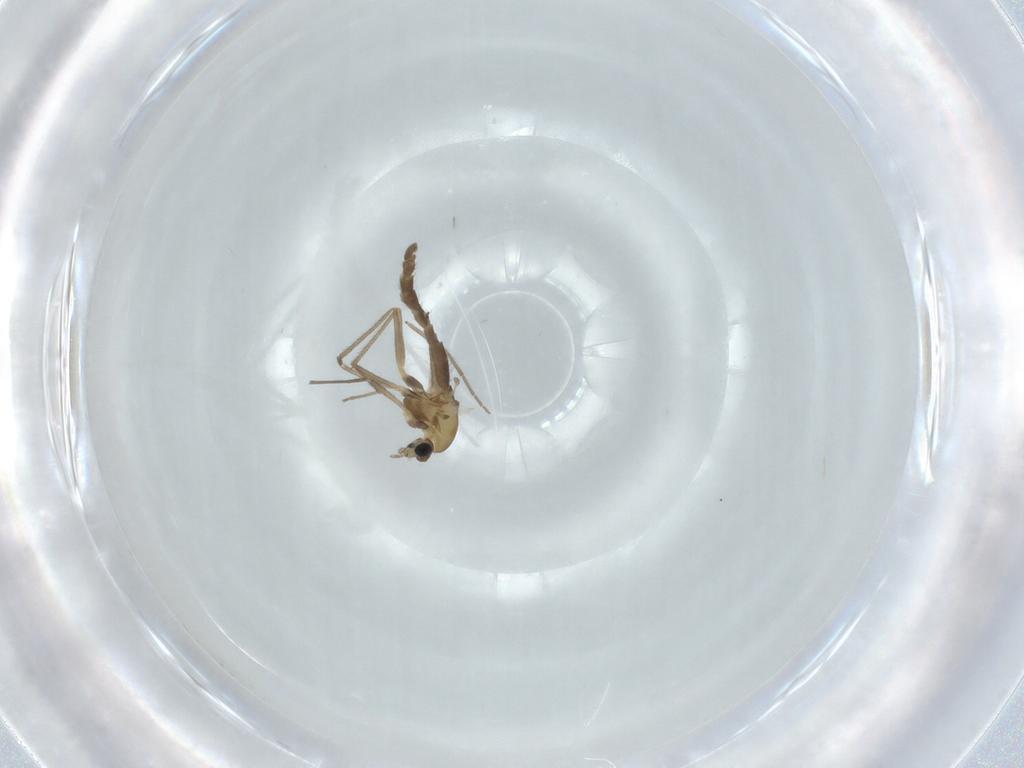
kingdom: Animalia
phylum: Arthropoda
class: Insecta
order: Diptera
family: Chironomidae
